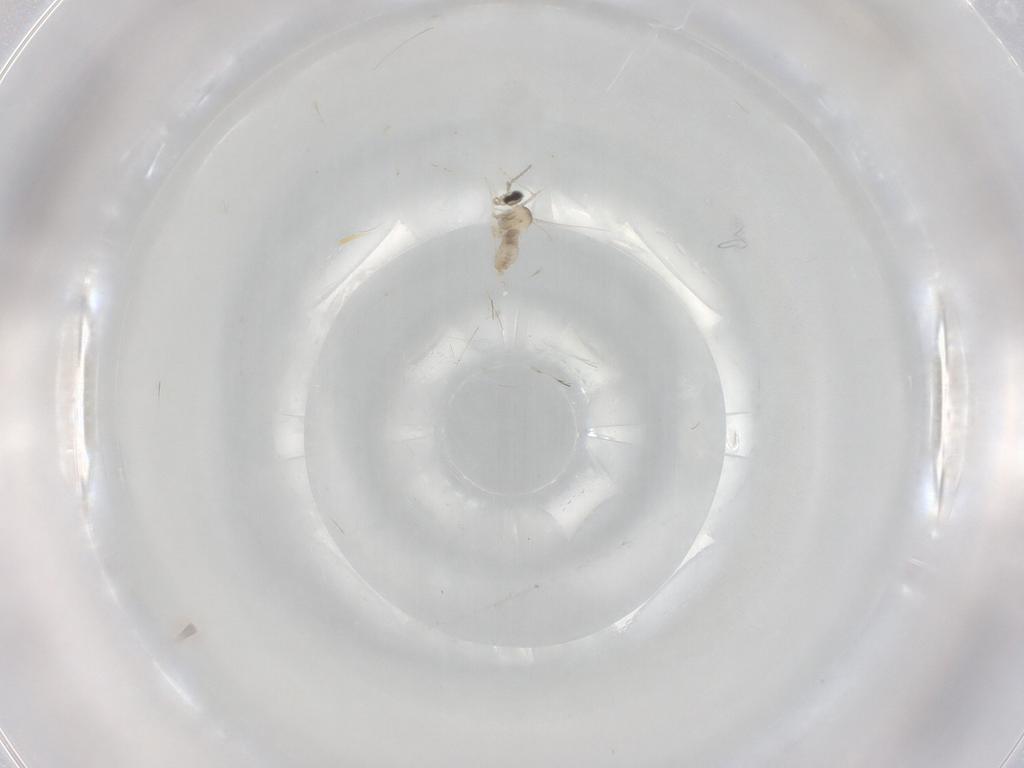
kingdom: Animalia
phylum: Arthropoda
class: Insecta
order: Diptera
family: Cecidomyiidae
